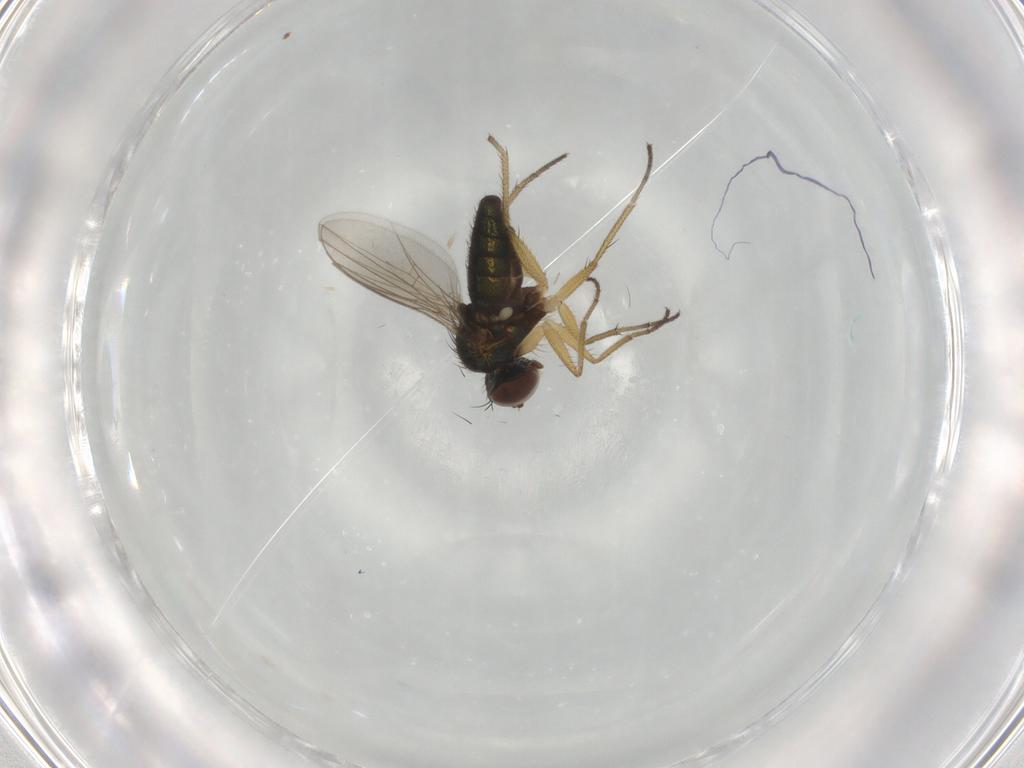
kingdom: Animalia
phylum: Arthropoda
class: Insecta
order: Diptera
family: Dolichopodidae
